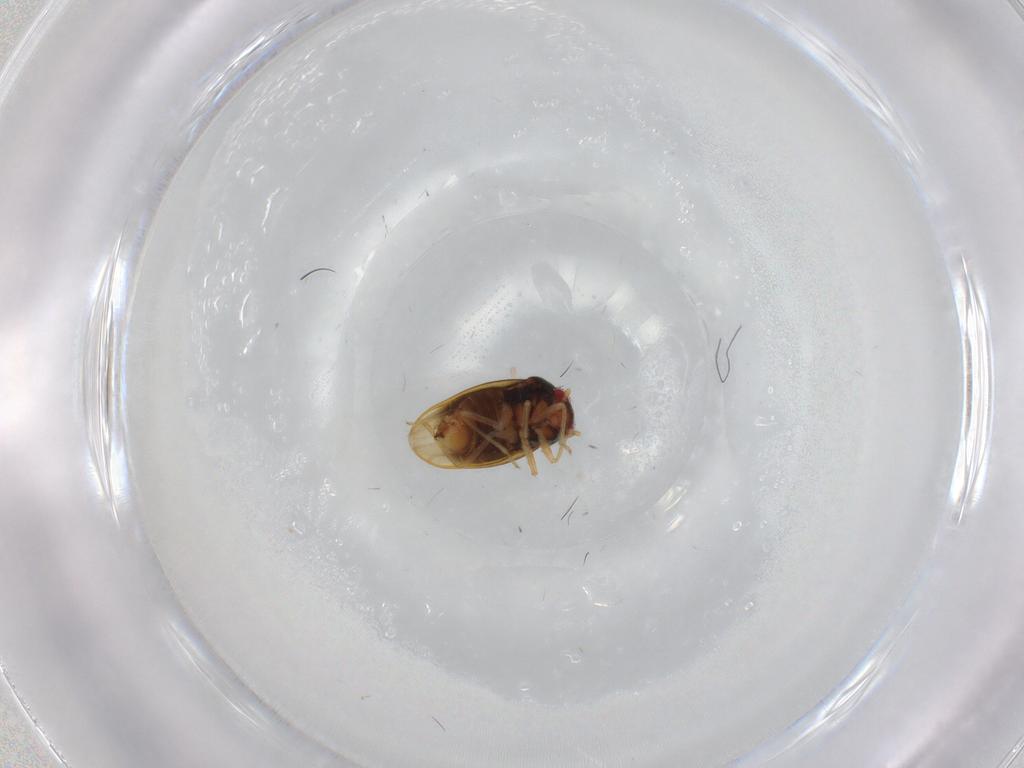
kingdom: Animalia
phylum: Arthropoda
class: Insecta
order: Hemiptera
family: Schizopteridae
